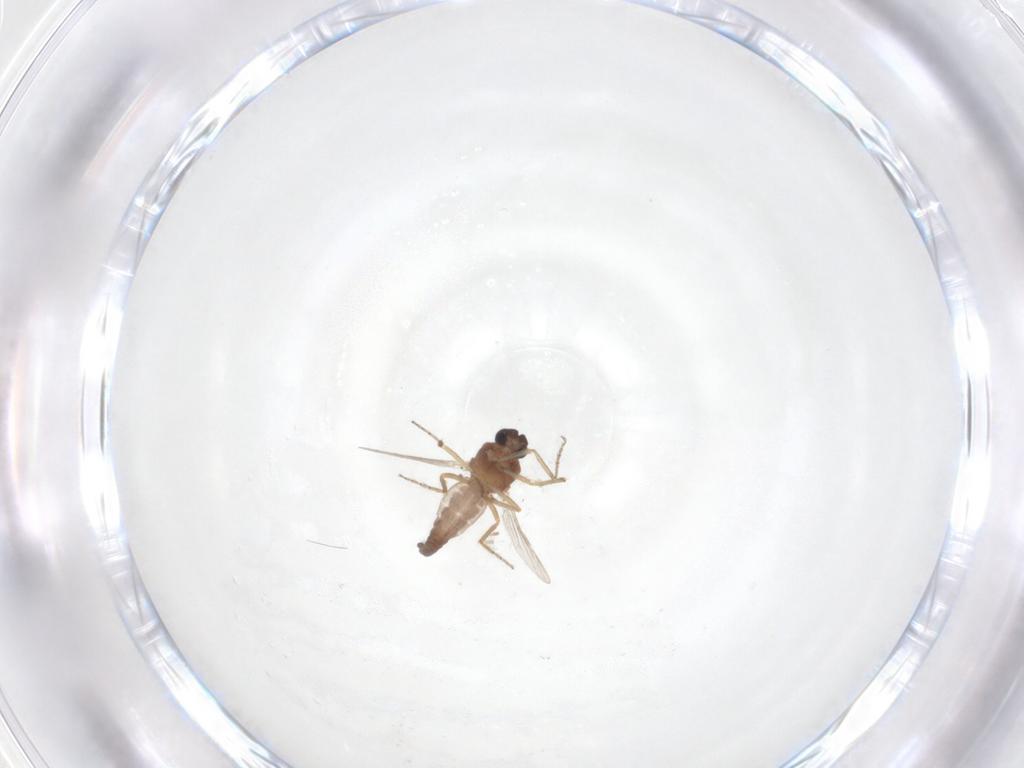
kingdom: Animalia
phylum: Arthropoda
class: Insecta
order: Diptera
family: Ceratopogonidae
